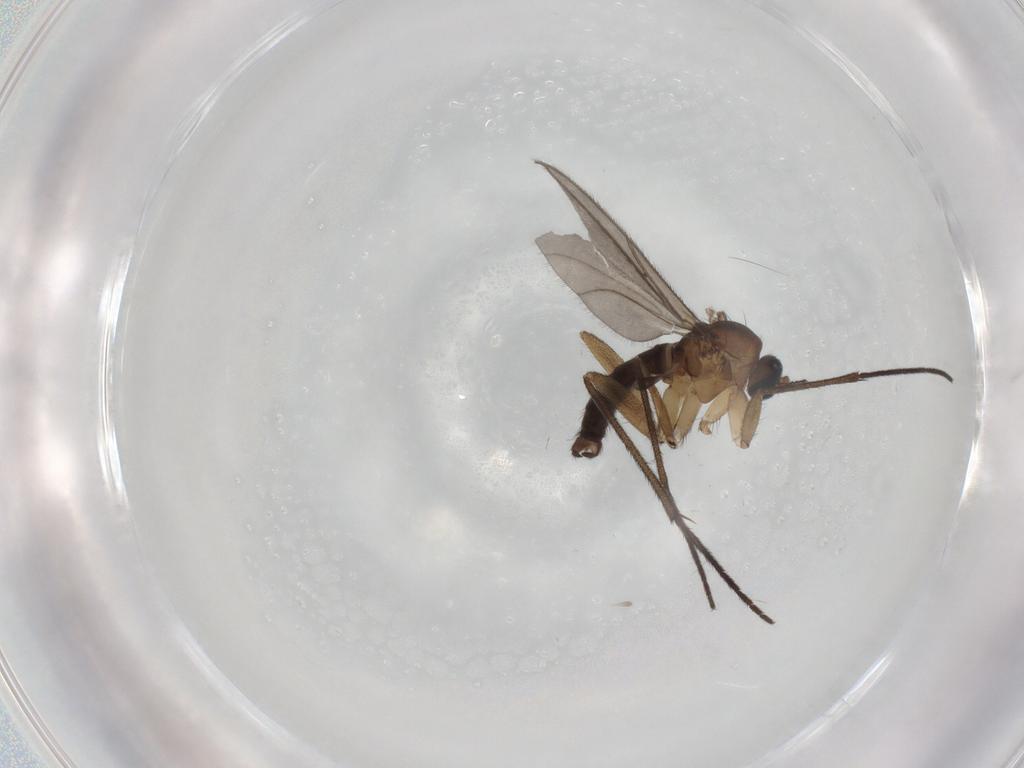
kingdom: Animalia
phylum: Arthropoda
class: Insecta
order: Diptera
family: Sciaridae
